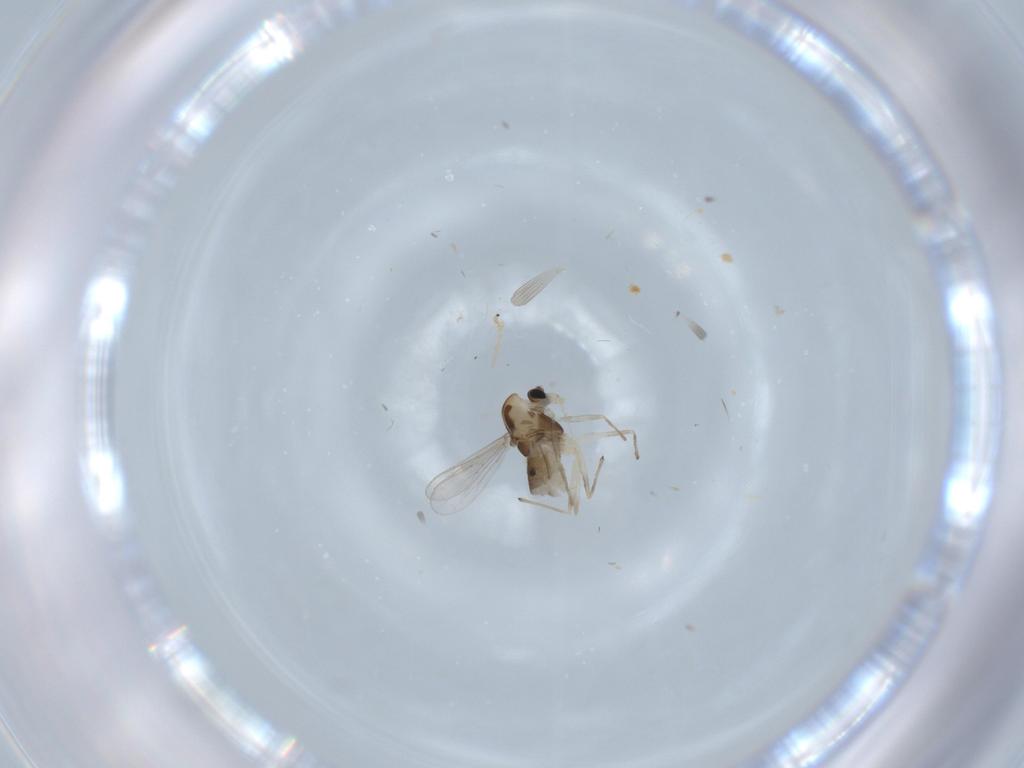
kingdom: Animalia
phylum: Arthropoda
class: Insecta
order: Diptera
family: Chironomidae
